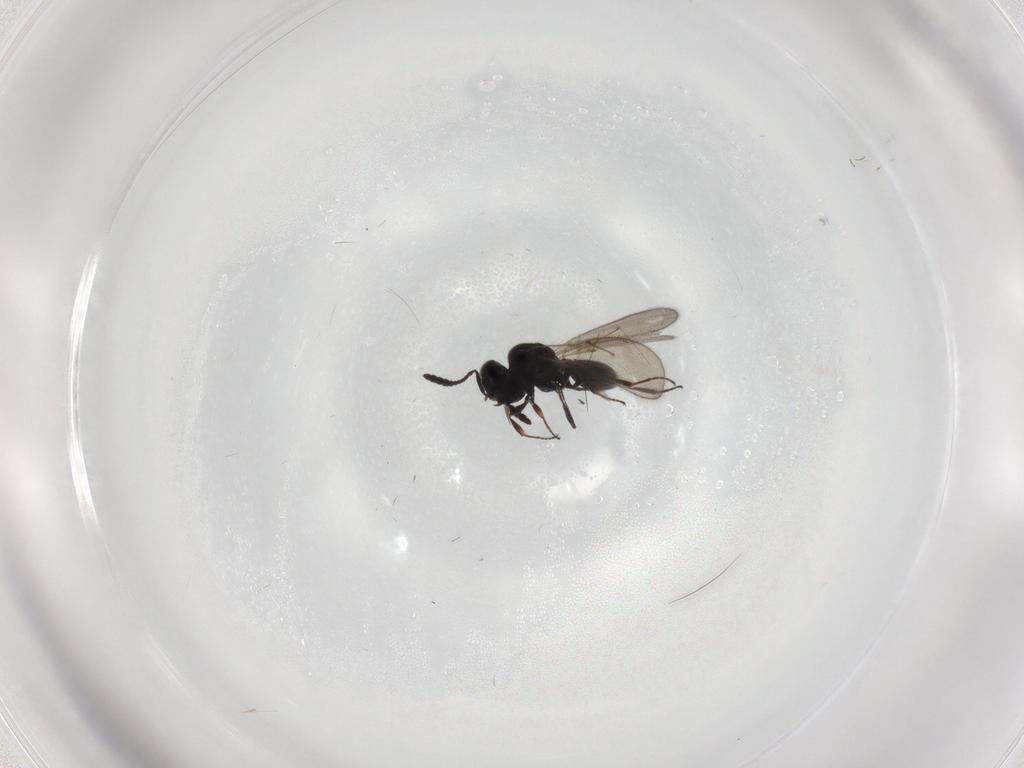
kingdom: Animalia
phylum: Arthropoda
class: Insecta
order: Hymenoptera
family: Scelionidae
